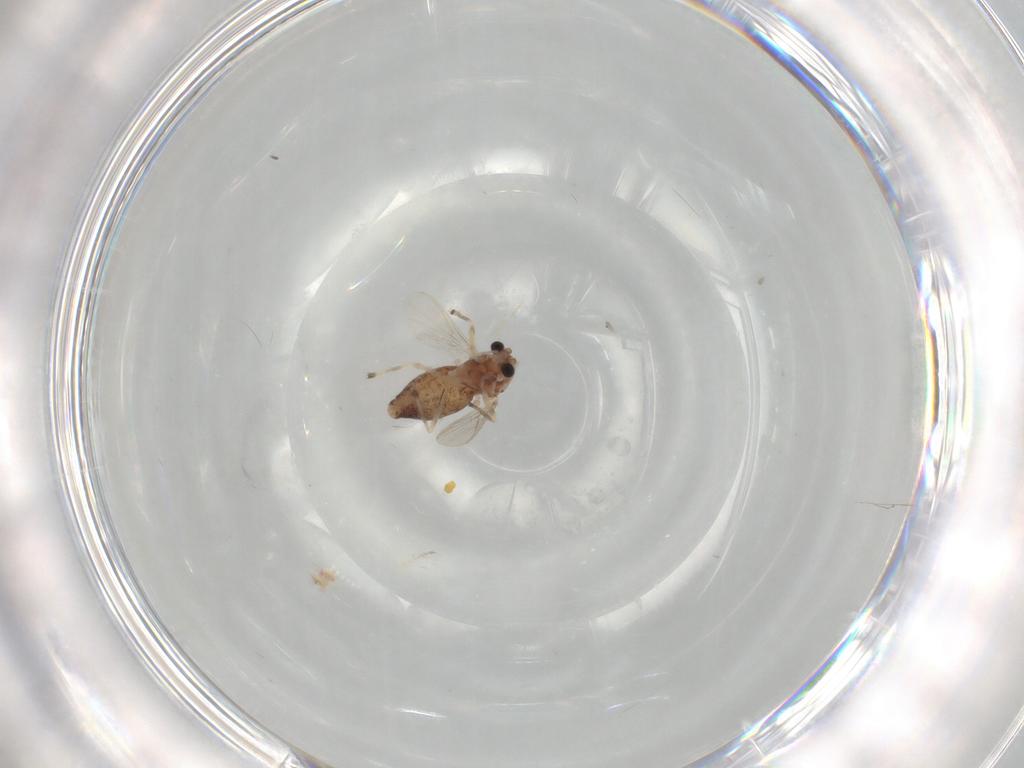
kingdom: Animalia
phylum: Arthropoda
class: Insecta
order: Diptera
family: Chironomidae
